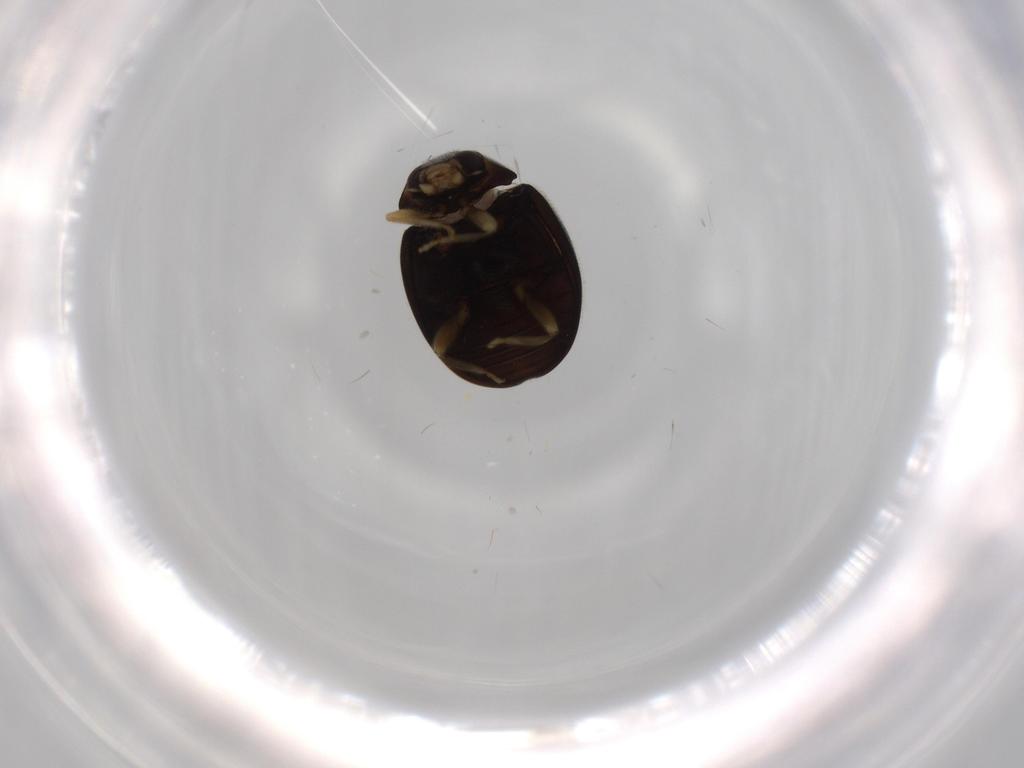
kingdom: Animalia
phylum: Arthropoda
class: Insecta
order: Coleoptera
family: Coccinellidae
